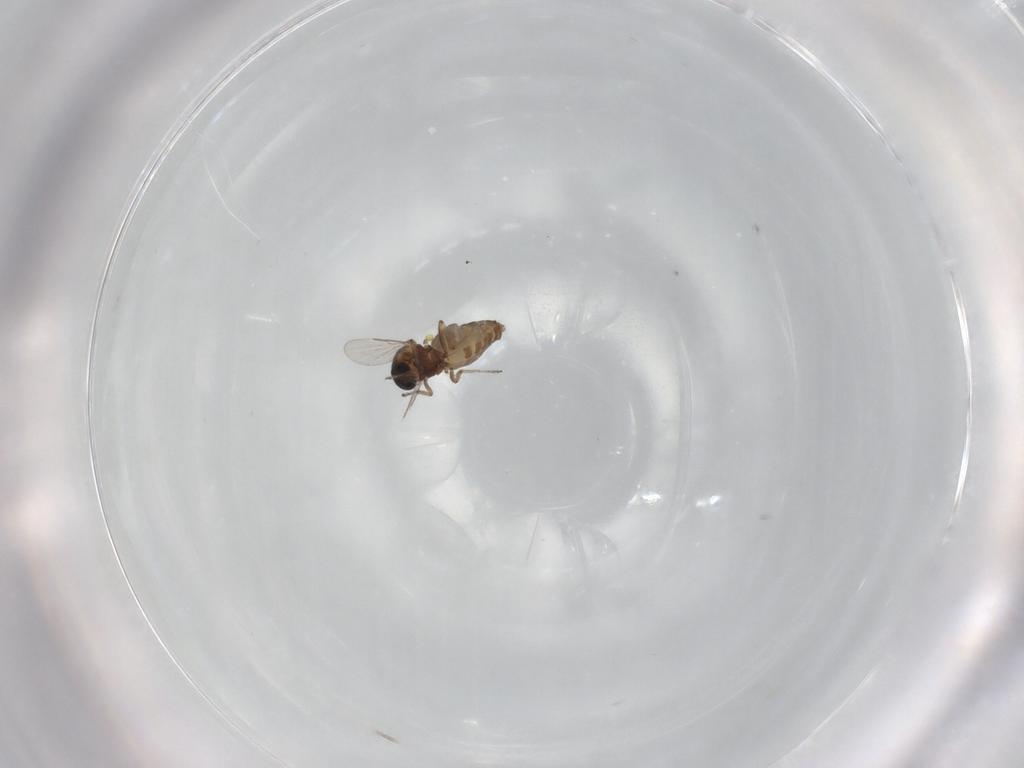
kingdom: Animalia
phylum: Arthropoda
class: Insecta
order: Diptera
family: Ceratopogonidae
